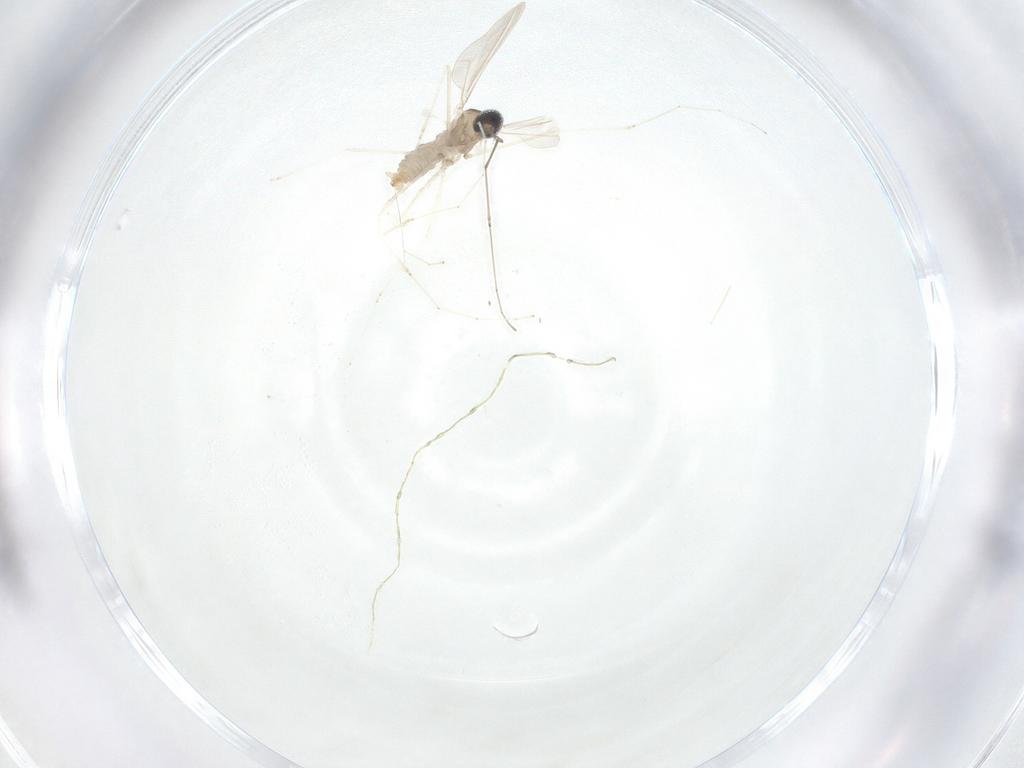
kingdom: Animalia
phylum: Arthropoda
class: Insecta
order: Diptera
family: Cecidomyiidae
